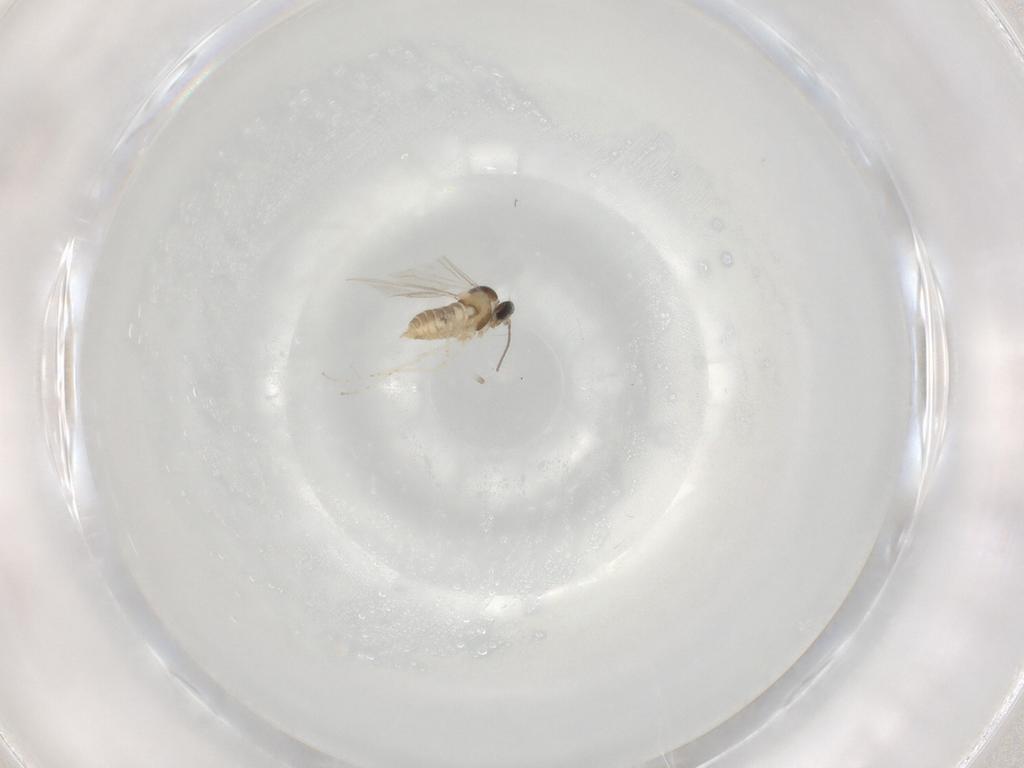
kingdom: Animalia
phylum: Arthropoda
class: Insecta
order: Diptera
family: Cecidomyiidae
